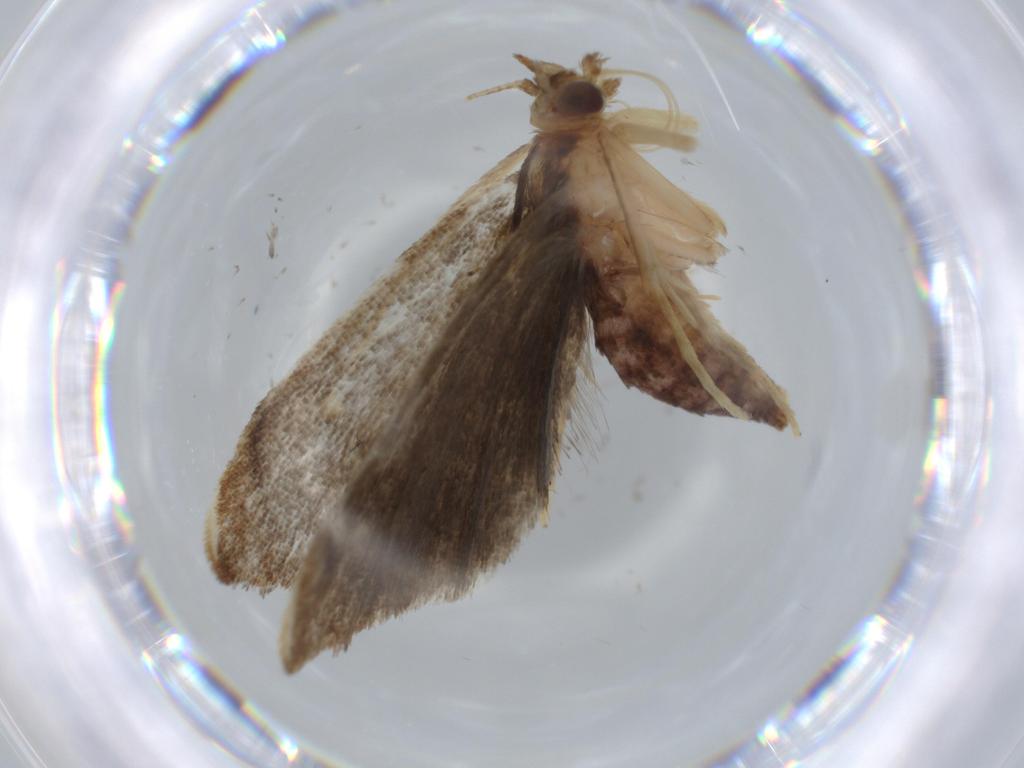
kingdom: Animalia
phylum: Arthropoda
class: Insecta
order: Lepidoptera
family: Nepticulidae
